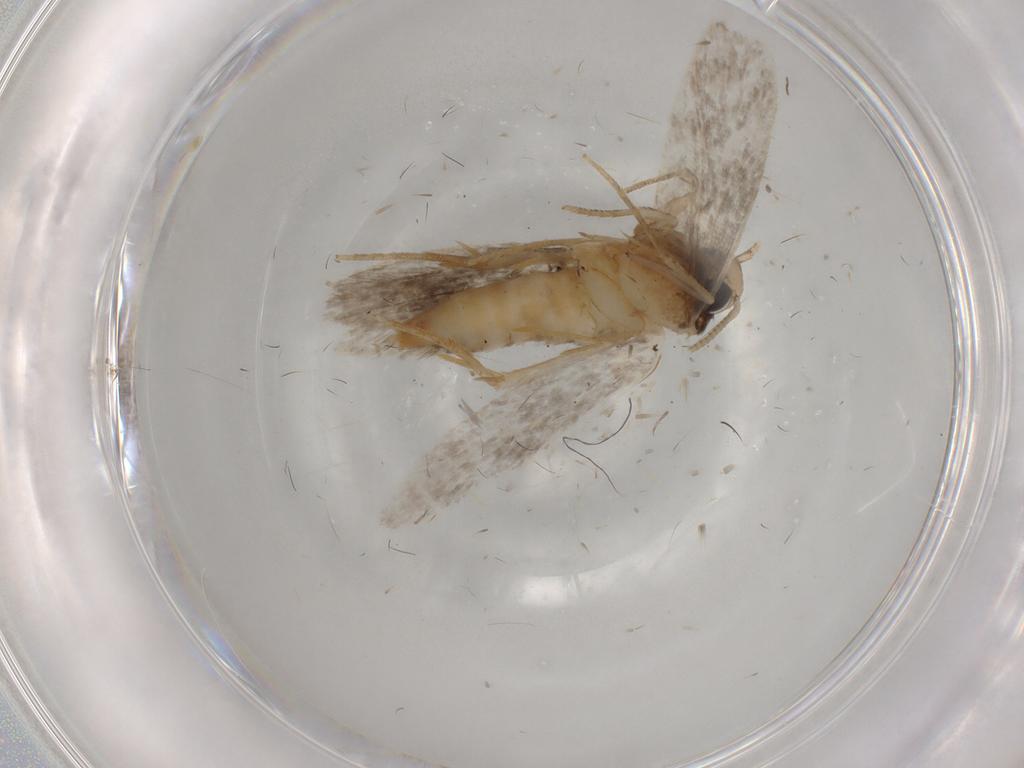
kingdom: Animalia
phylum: Arthropoda
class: Insecta
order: Lepidoptera
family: Tineidae
